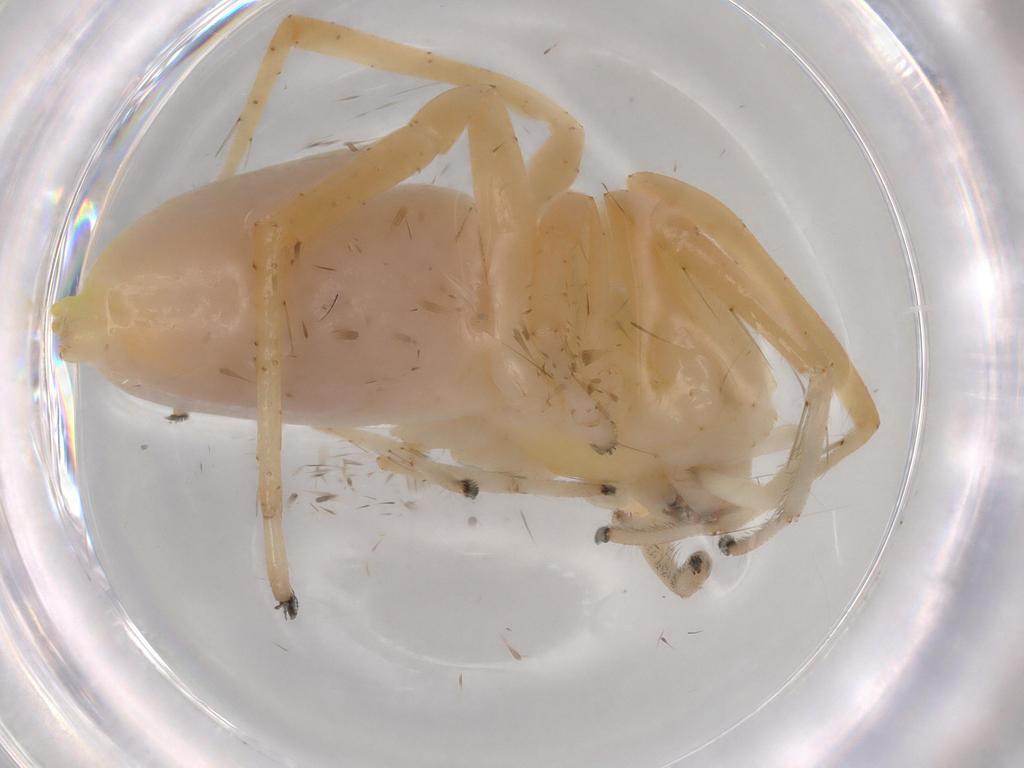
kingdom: Animalia
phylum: Arthropoda
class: Arachnida
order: Araneae
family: Anyphaenidae
